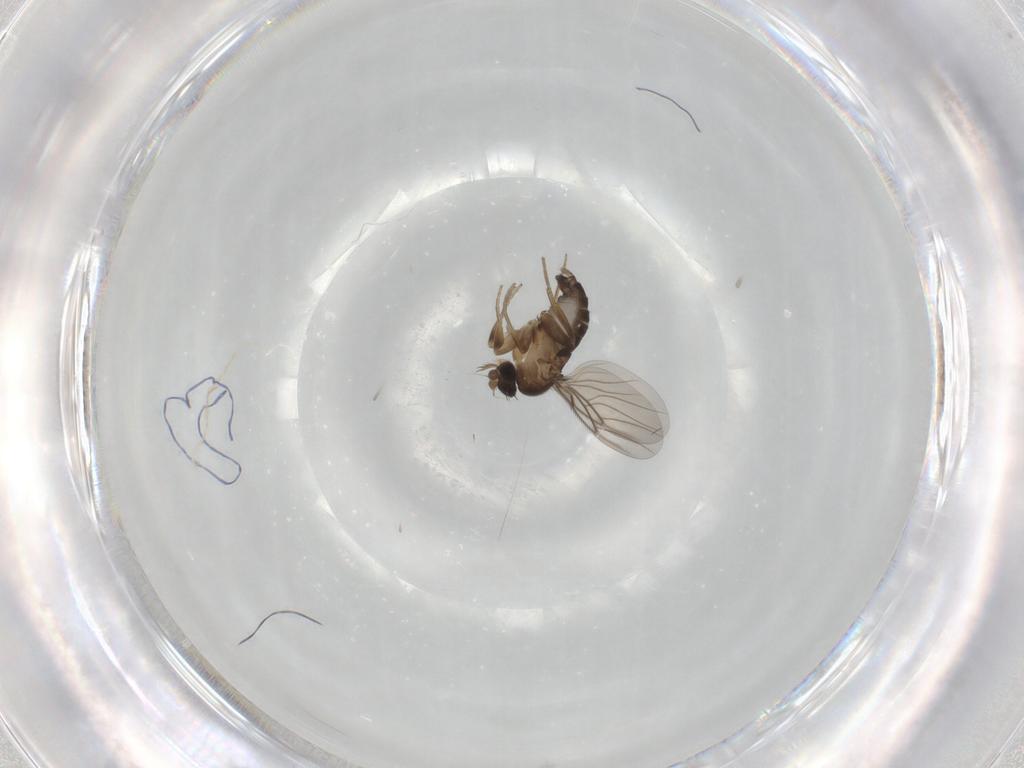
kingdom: Animalia
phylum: Arthropoda
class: Insecta
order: Diptera
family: Phoridae
